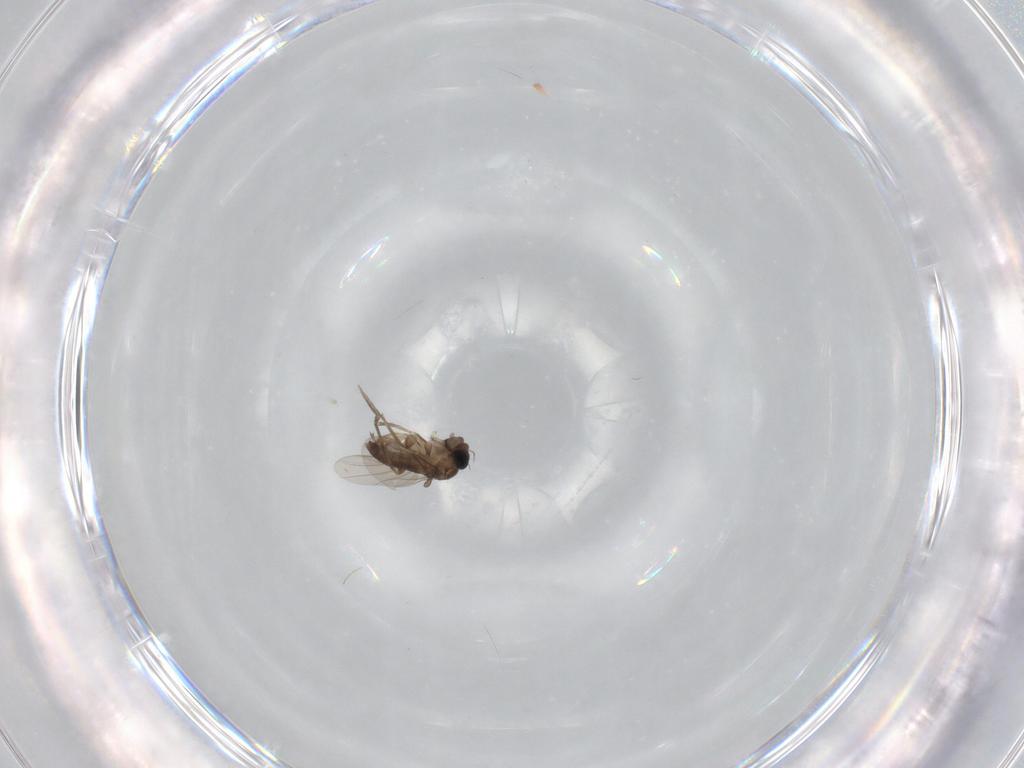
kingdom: Animalia
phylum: Arthropoda
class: Insecta
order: Diptera
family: Phoridae
